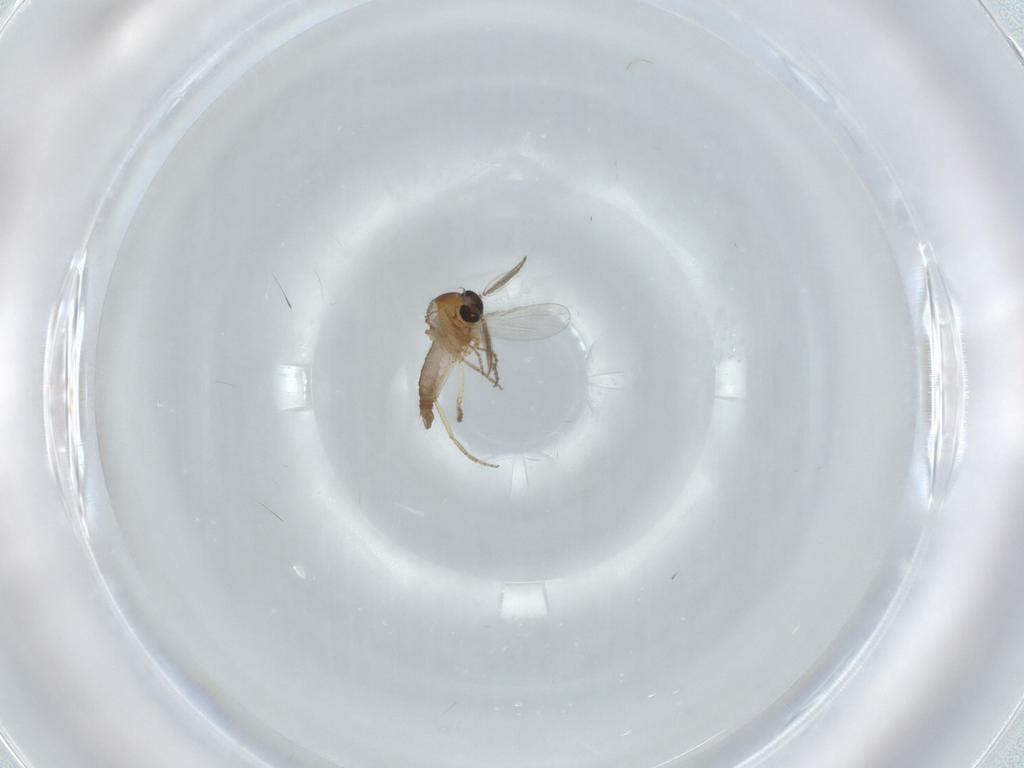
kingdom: Animalia
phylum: Arthropoda
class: Insecta
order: Diptera
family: Ceratopogonidae
